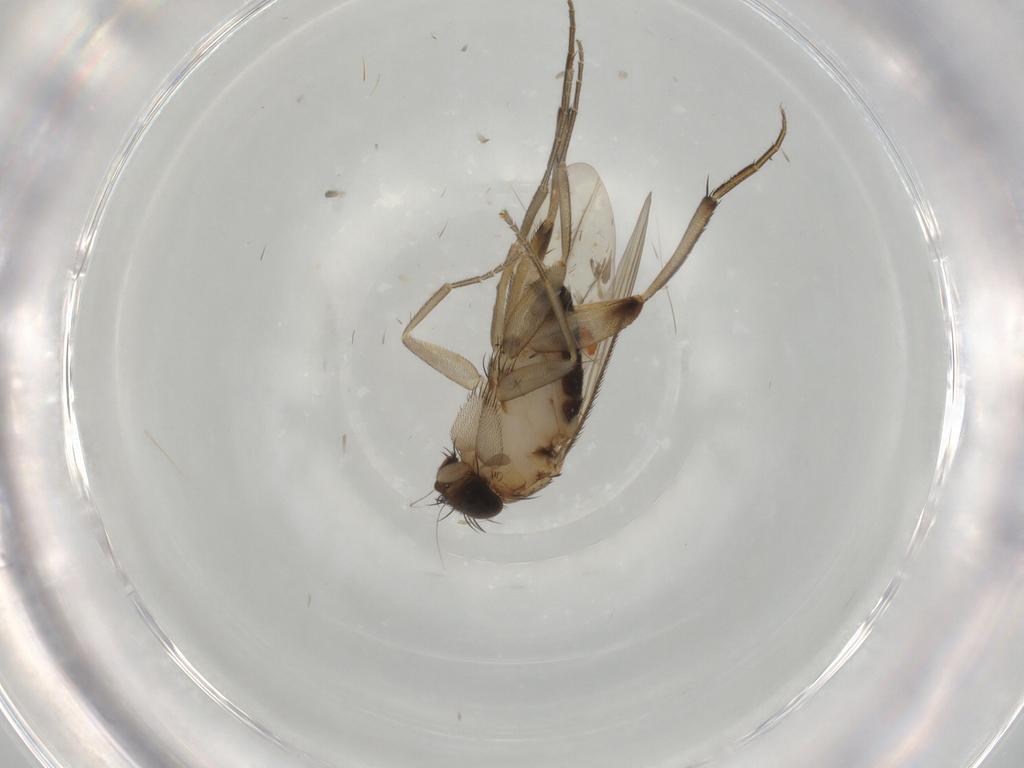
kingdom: Animalia
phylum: Arthropoda
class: Insecta
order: Diptera
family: Phoridae
